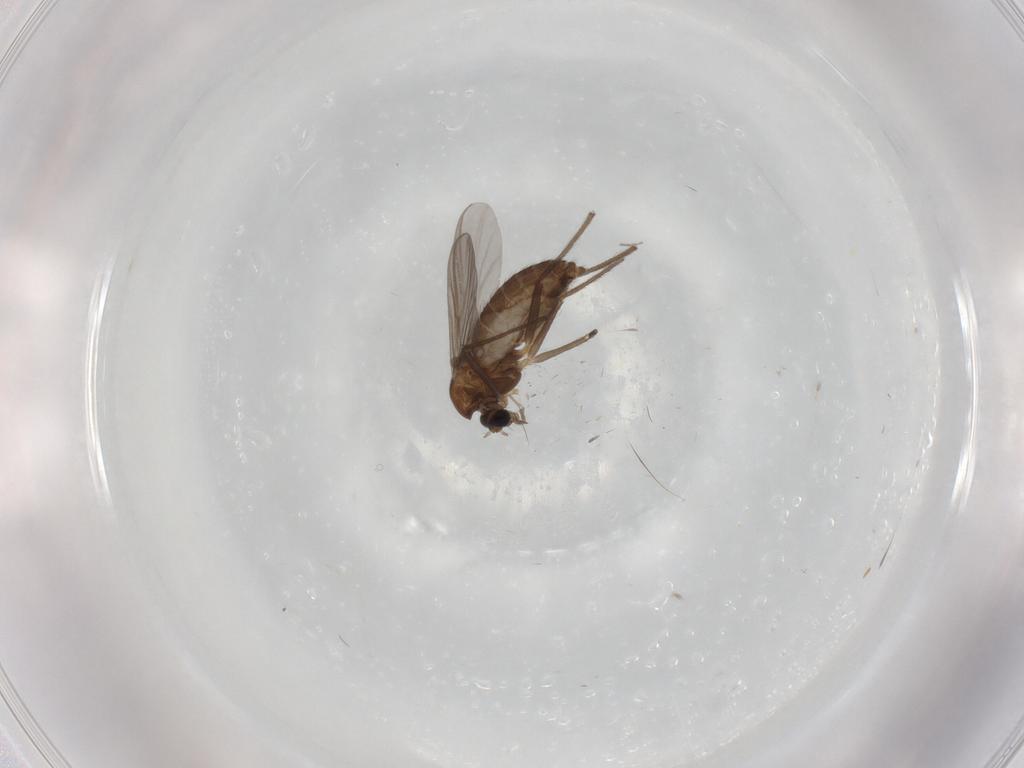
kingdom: Animalia
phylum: Arthropoda
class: Insecta
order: Diptera
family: Chironomidae
